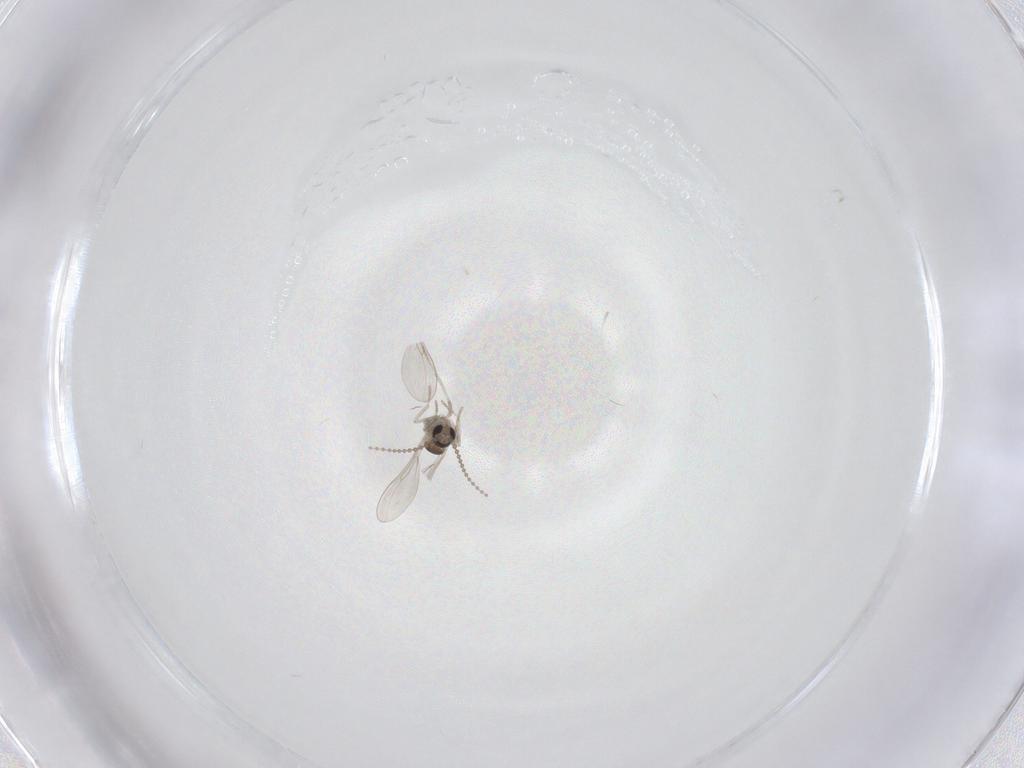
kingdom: Animalia
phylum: Arthropoda
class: Insecta
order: Diptera
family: Cecidomyiidae
